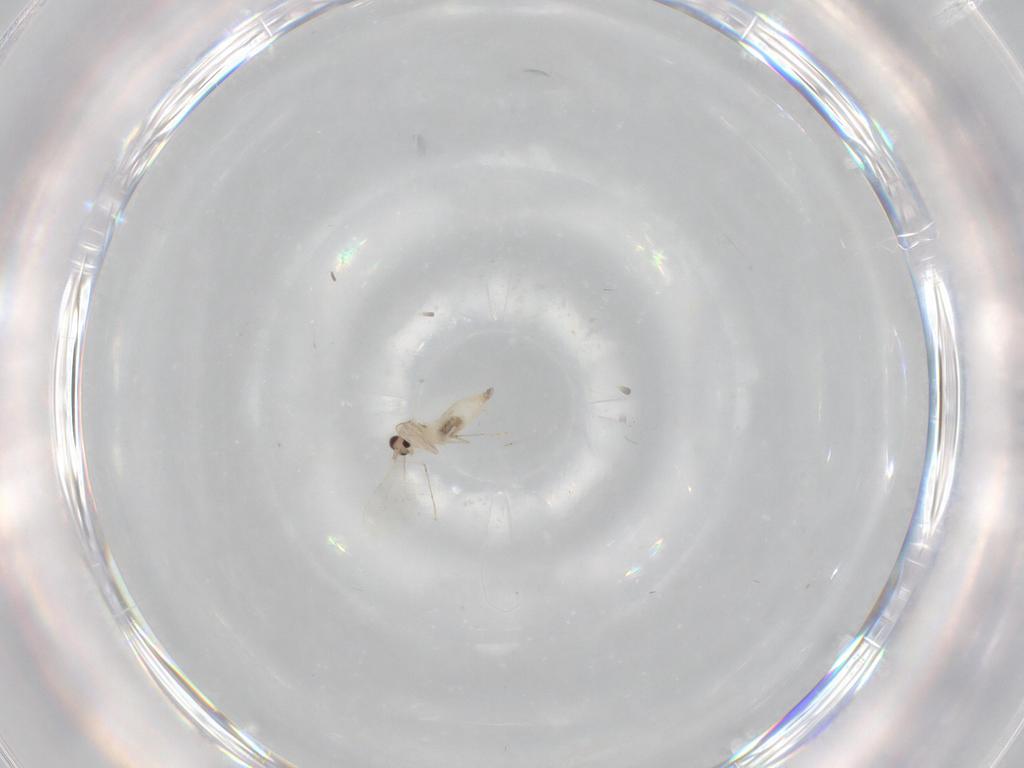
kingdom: Animalia
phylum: Arthropoda
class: Insecta
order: Diptera
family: Cecidomyiidae
